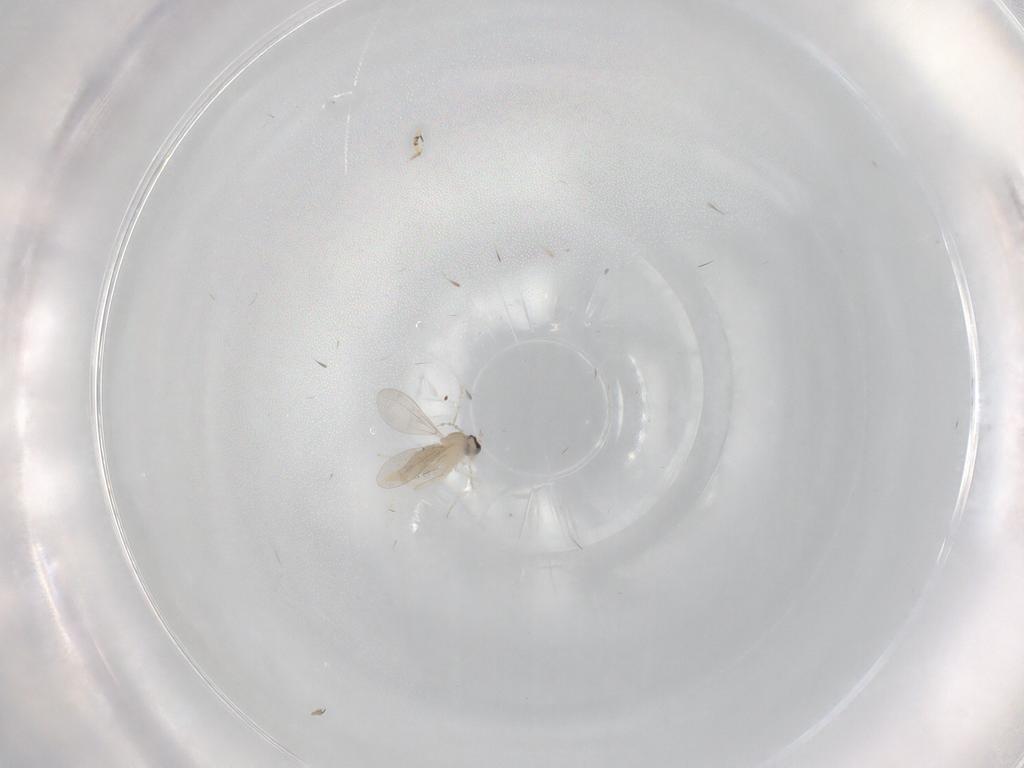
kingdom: Animalia
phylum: Arthropoda
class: Insecta
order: Diptera
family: Cecidomyiidae
